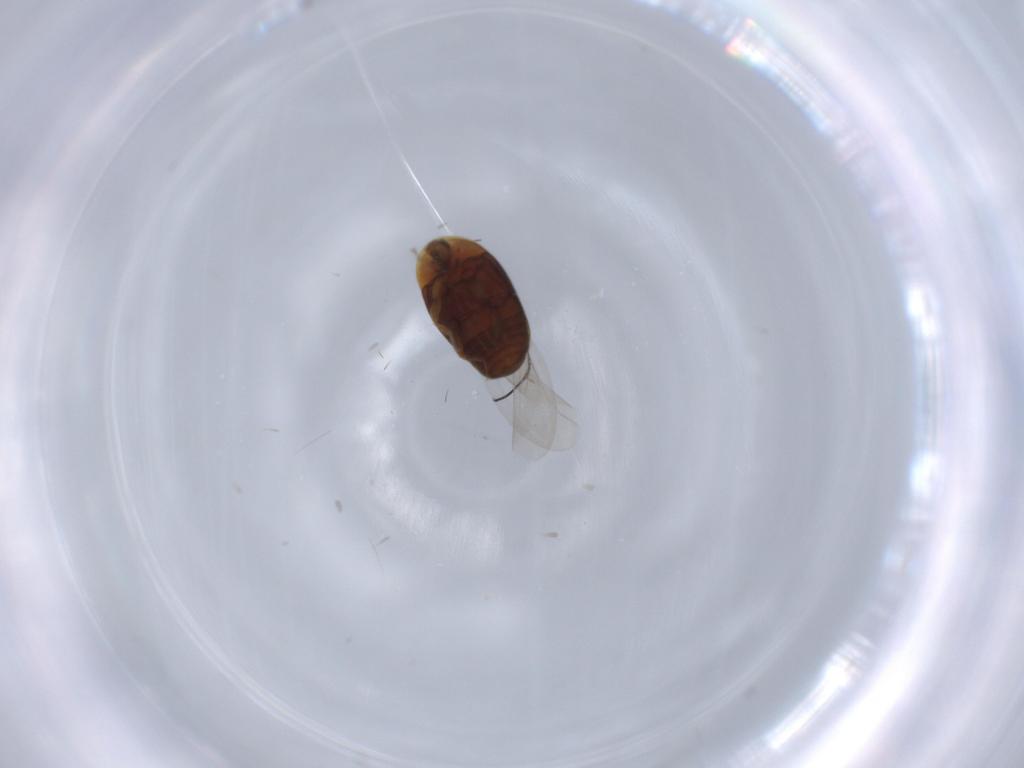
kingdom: Animalia
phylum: Arthropoda
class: Insecta
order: Coleoptera
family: Corylophidae
